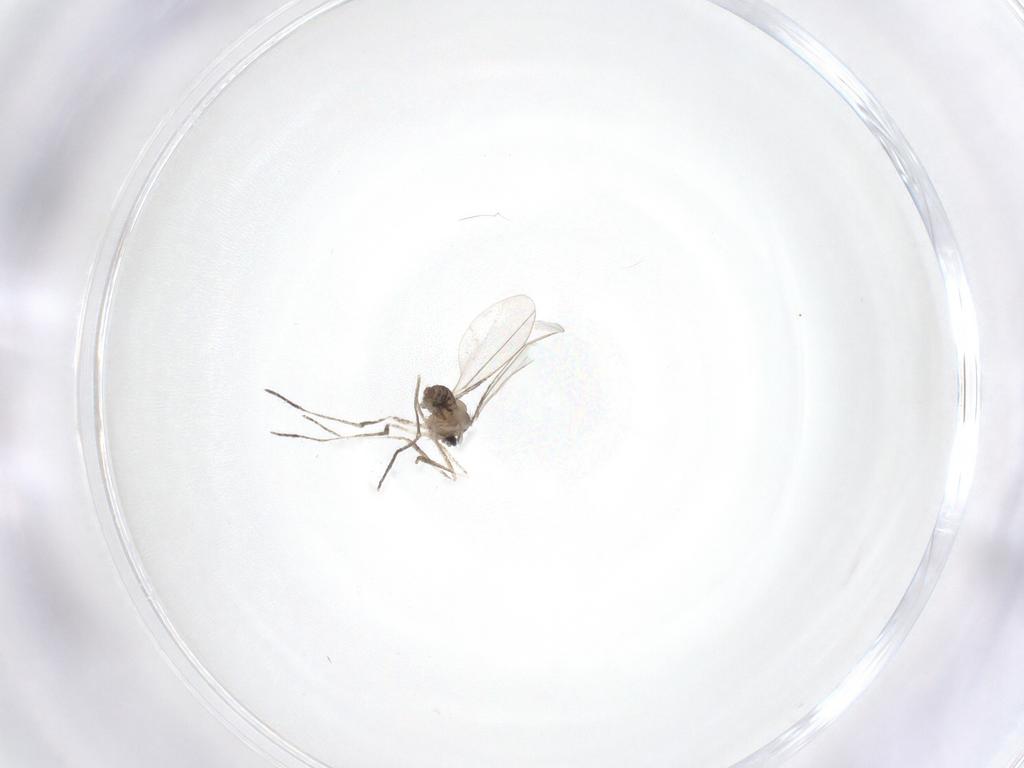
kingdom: Animalia
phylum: Arthropoda
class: Insecta
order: Diptera
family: Cecidomyiidae
